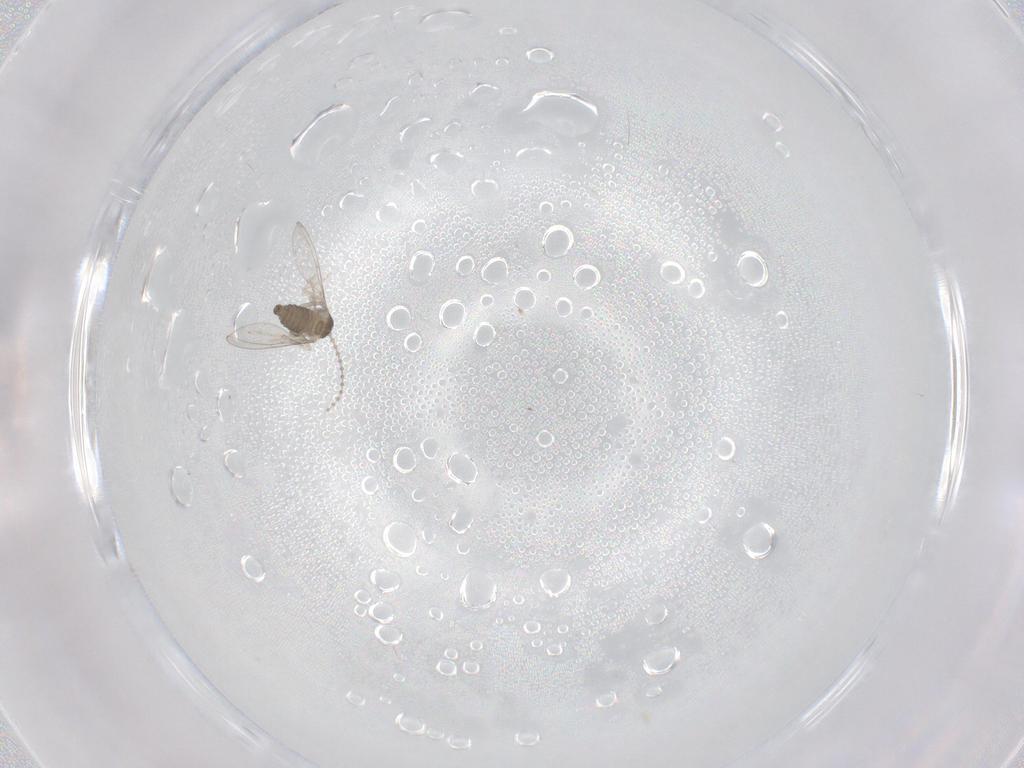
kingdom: Animalia
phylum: Arthropoda
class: Insecta
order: Diptera
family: Cecidomyiidae
